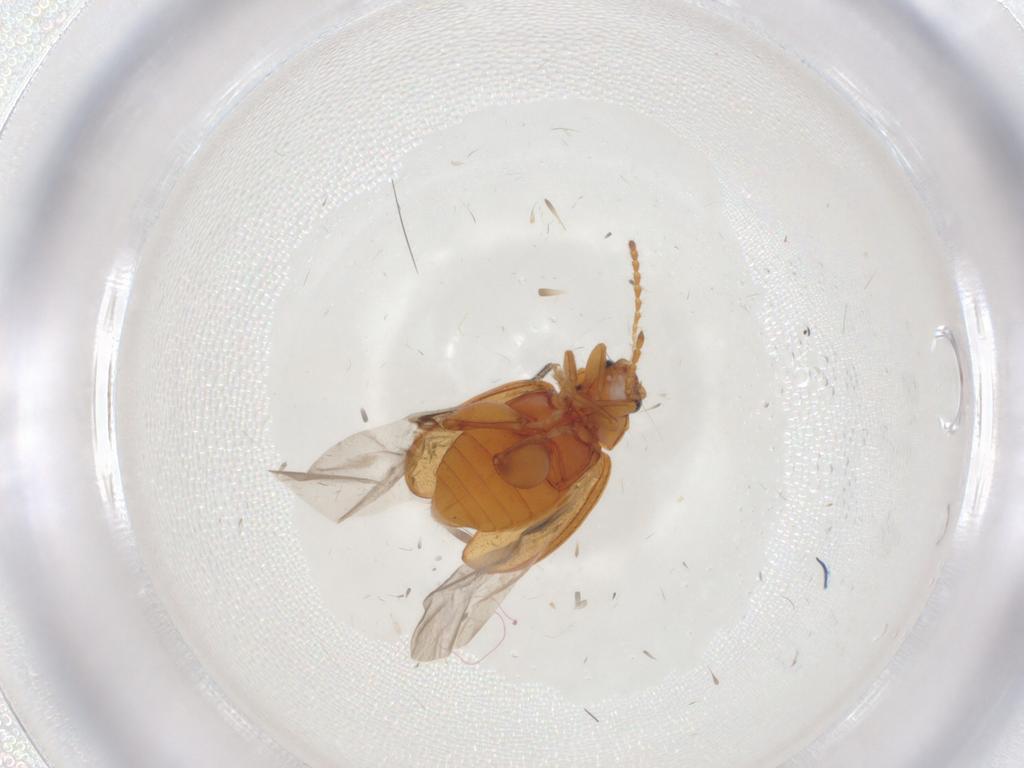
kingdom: Animalia
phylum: Arthropoda
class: Insecta
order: Coleoptera
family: Chrysomelidae
